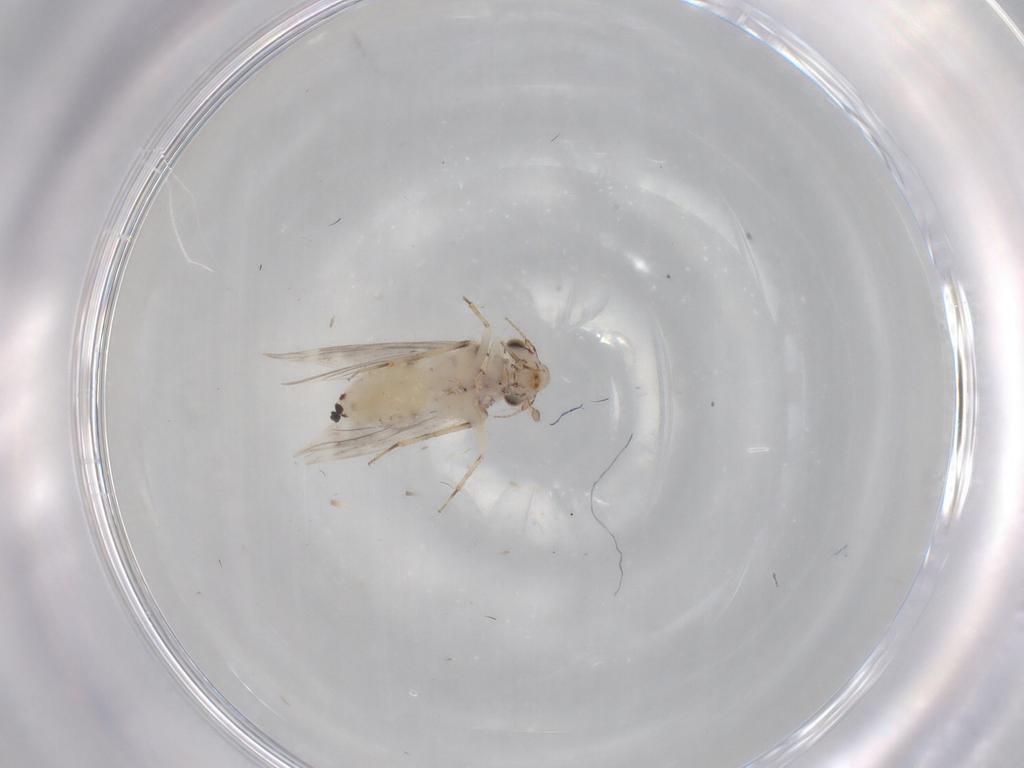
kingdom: Animalia
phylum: Arthropoda
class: Insecta
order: Psocodea
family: Lepidopsocidae
